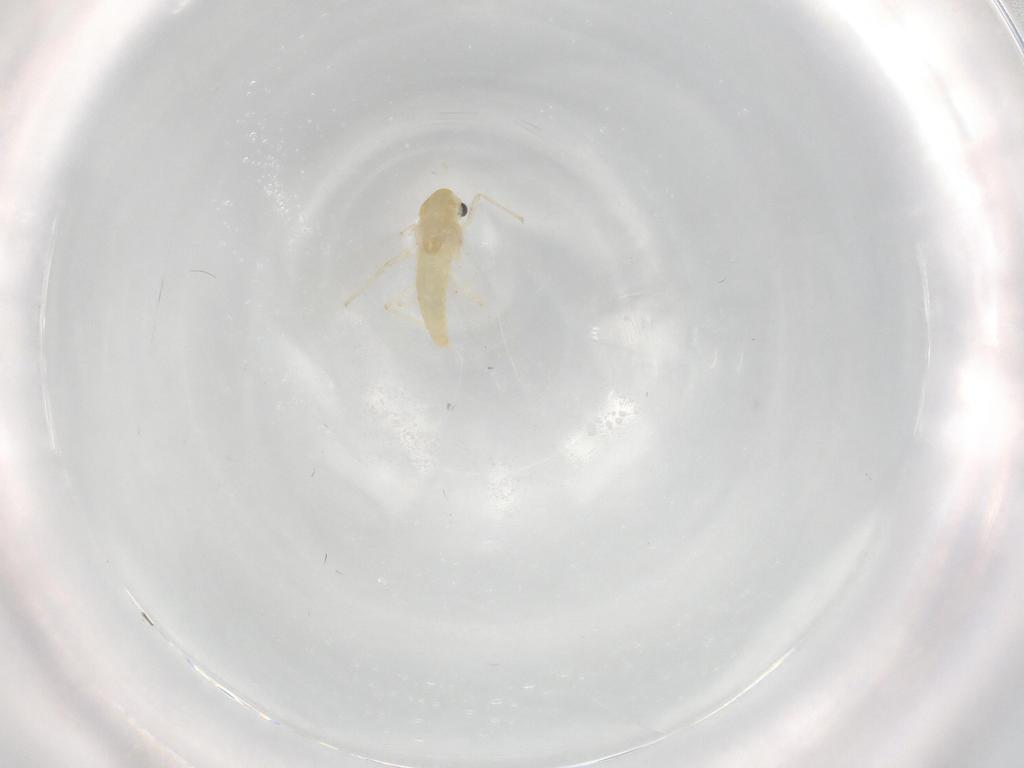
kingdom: Animalia
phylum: Arthropoda
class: Insecta
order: Diptera
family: Chironomidae
